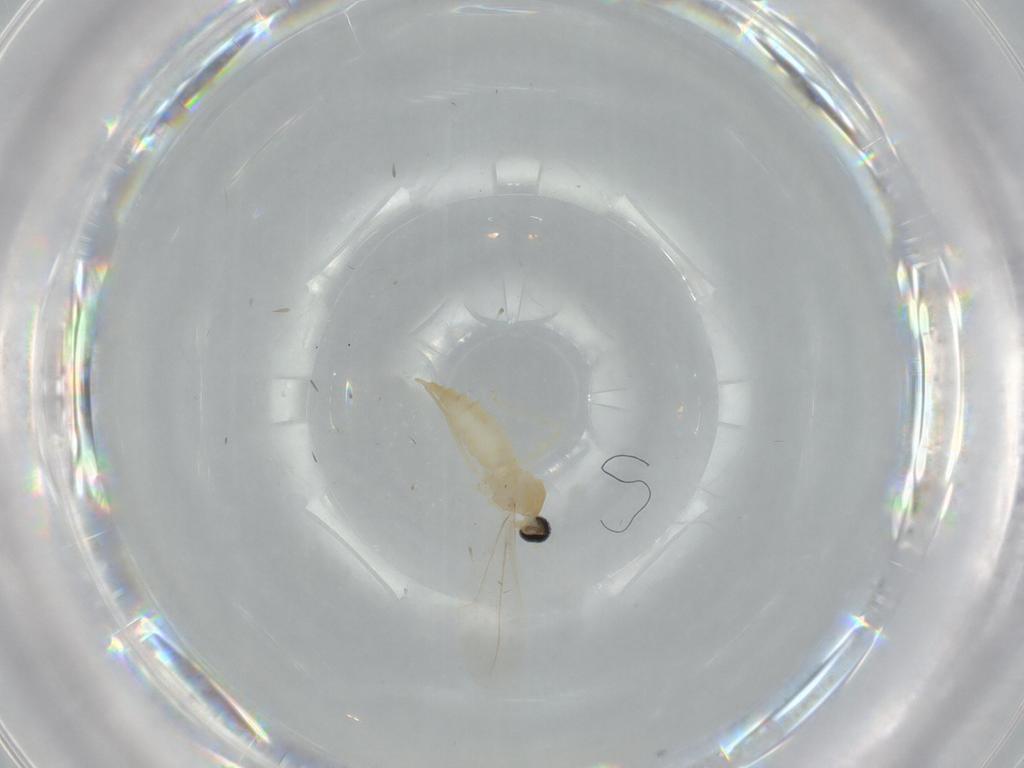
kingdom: Animalia
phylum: Arthropoda
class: Insecta
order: Diptera
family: Cecidomyiidae
